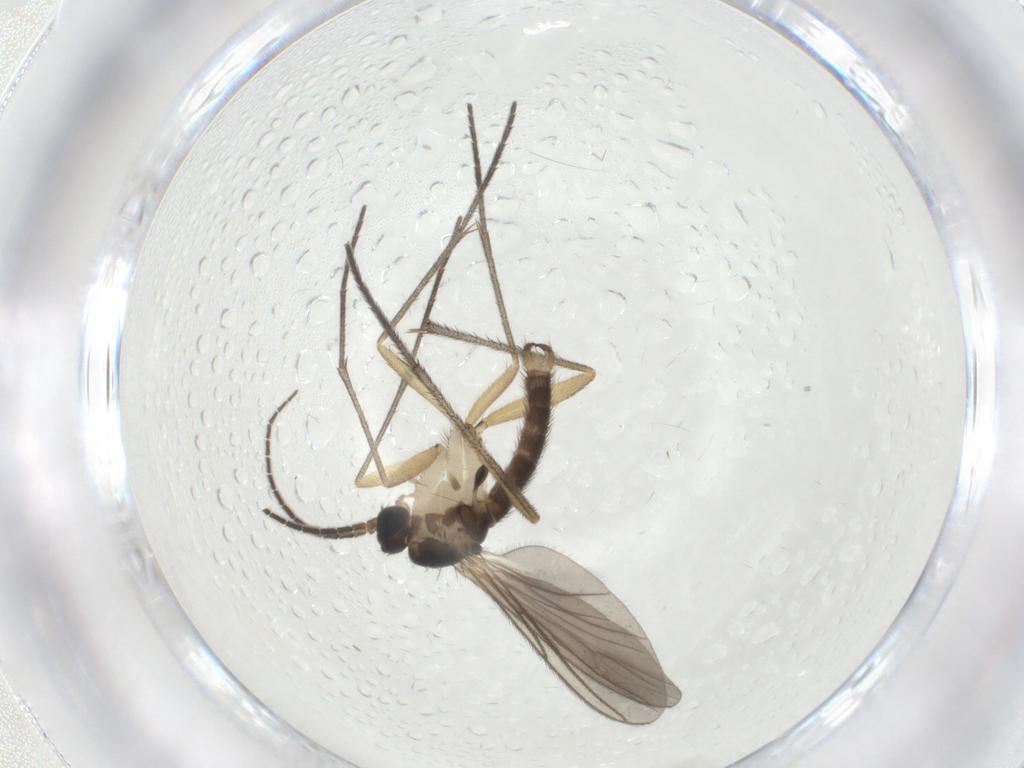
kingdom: Animalia
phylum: Arthropoda
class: Insecta
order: Diptera
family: Sciaridae
